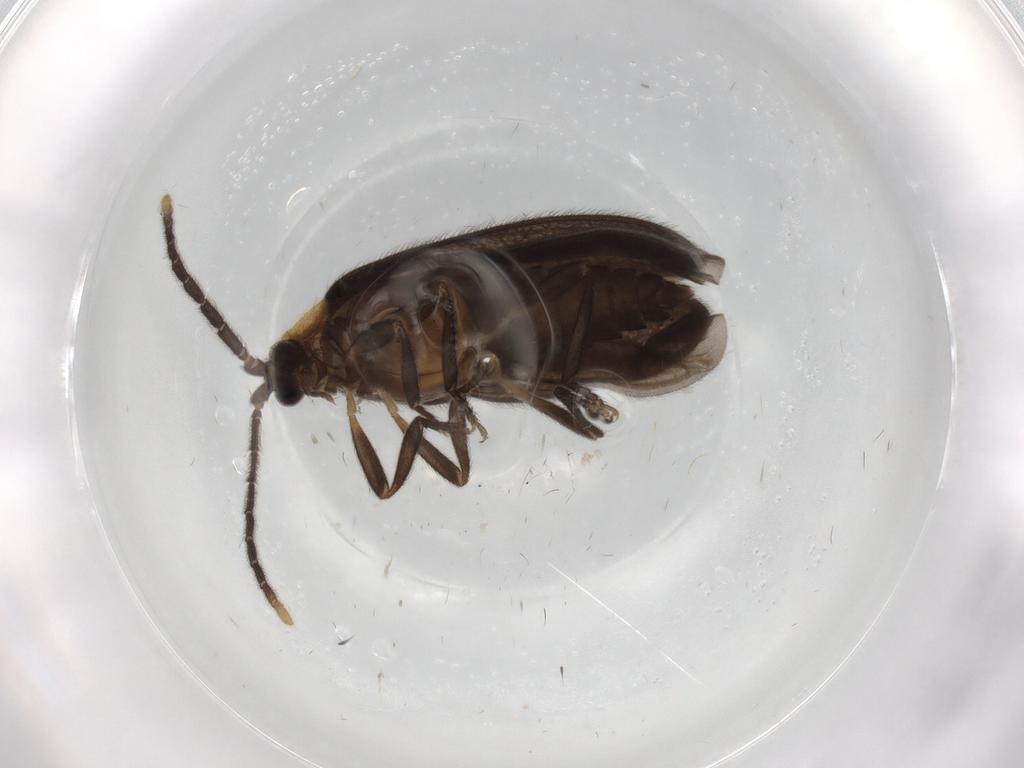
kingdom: Animalia
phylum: Arthropoda
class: Insecta
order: Coleoptera
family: Lycidae
